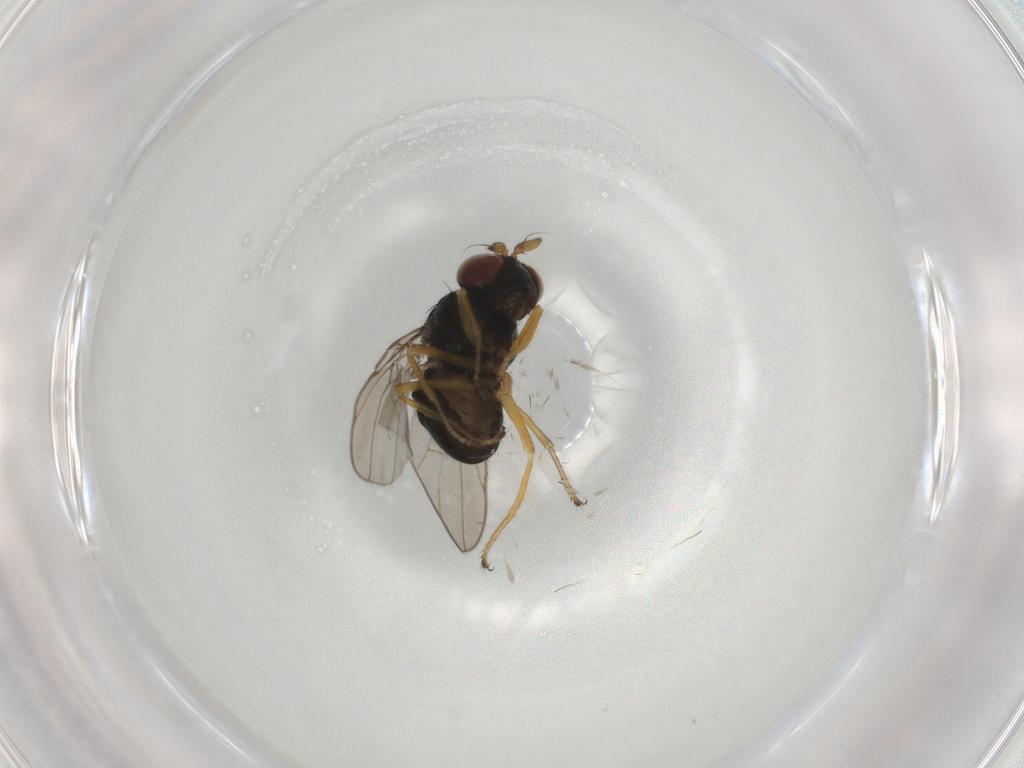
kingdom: Animalia
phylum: Arthropoda
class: Insecta
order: Diptera
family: Ephydridae
